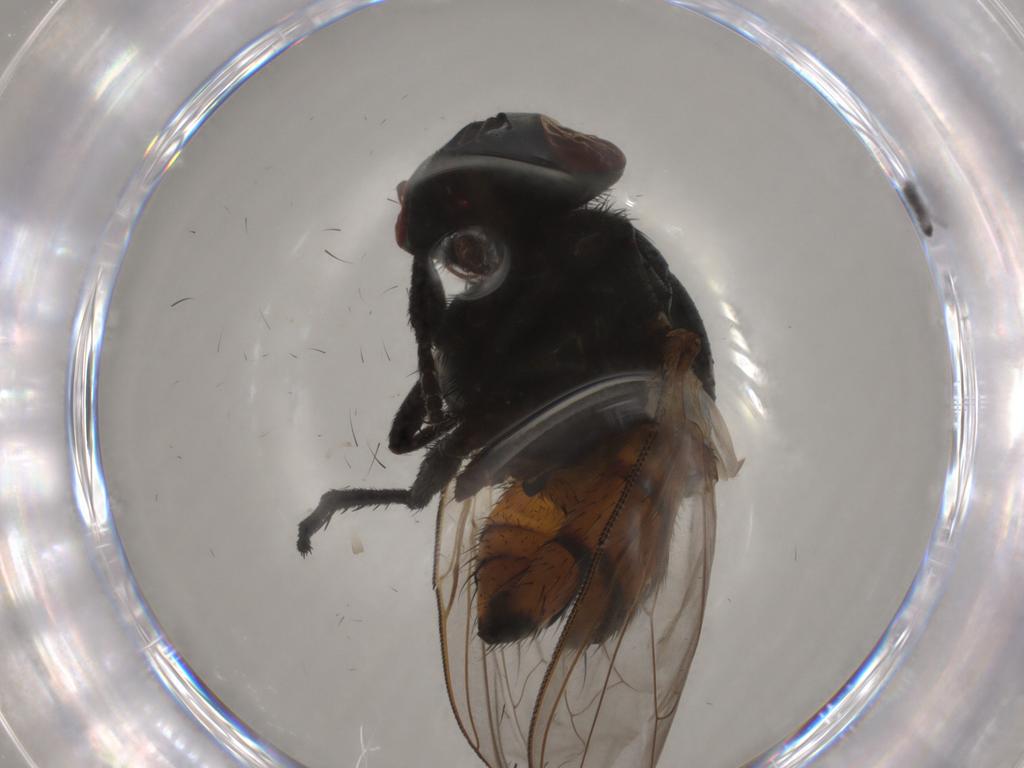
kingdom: Animalia
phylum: Arthropoda
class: Insecta
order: Diptera
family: Muscidae
